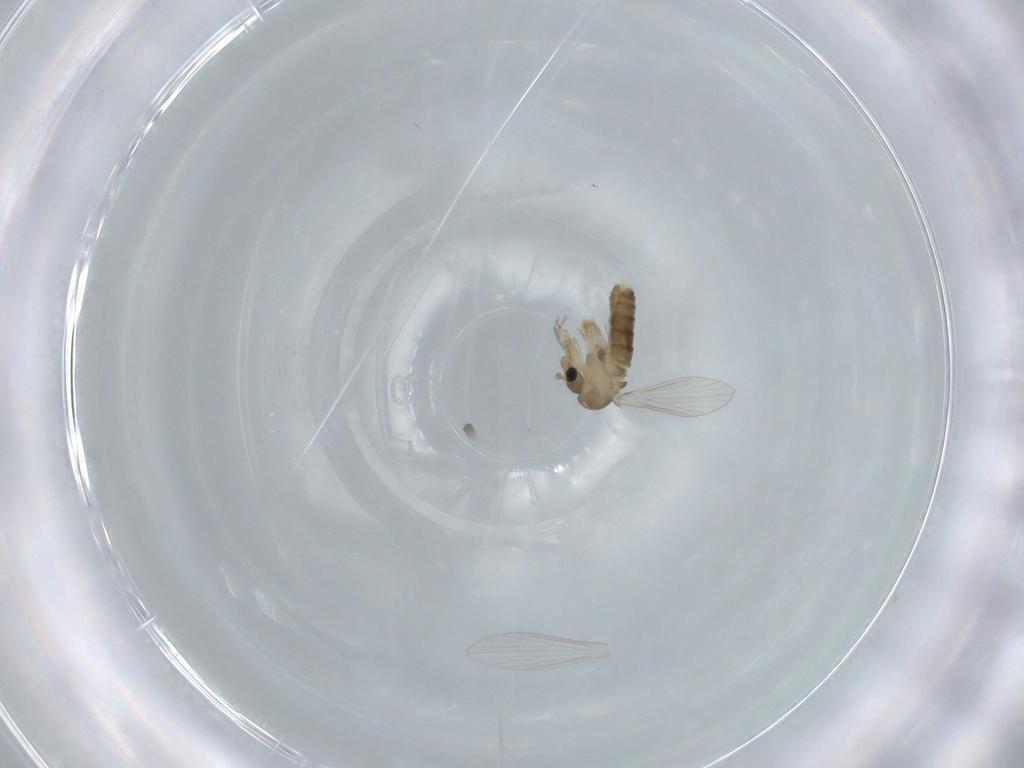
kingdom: Animalia
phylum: Arthropoda
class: Insecta
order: Diptera
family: Psychodidae
